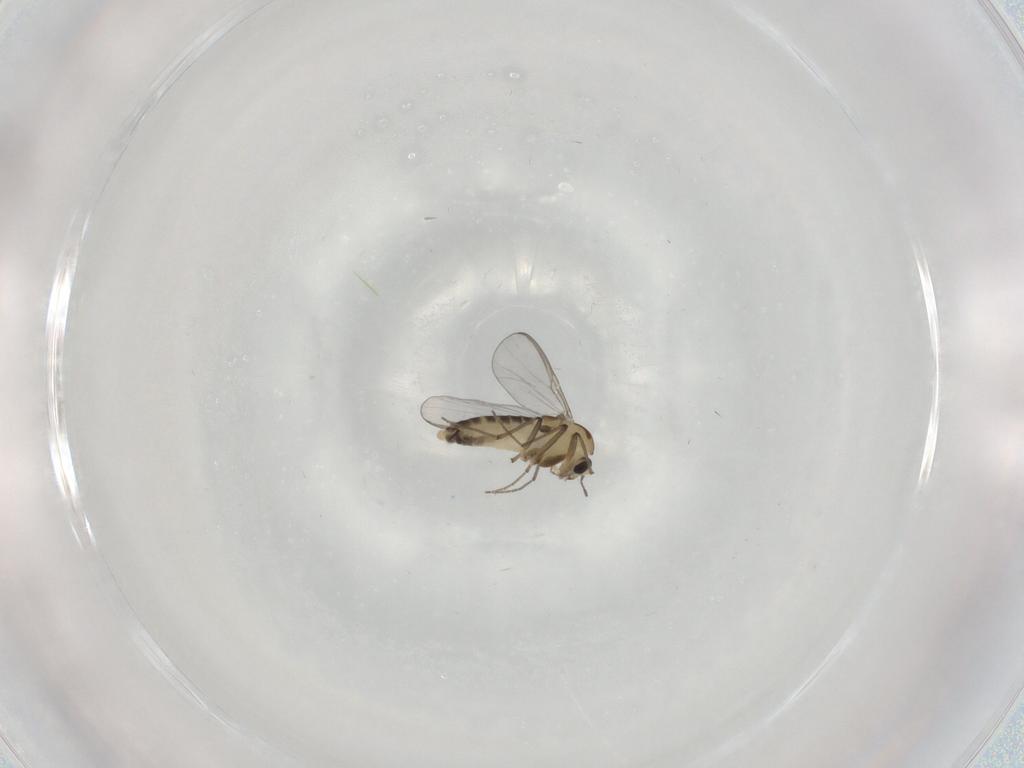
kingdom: Animalia
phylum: Arthropoda
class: Insecta
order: Diptera
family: Chironomidae
